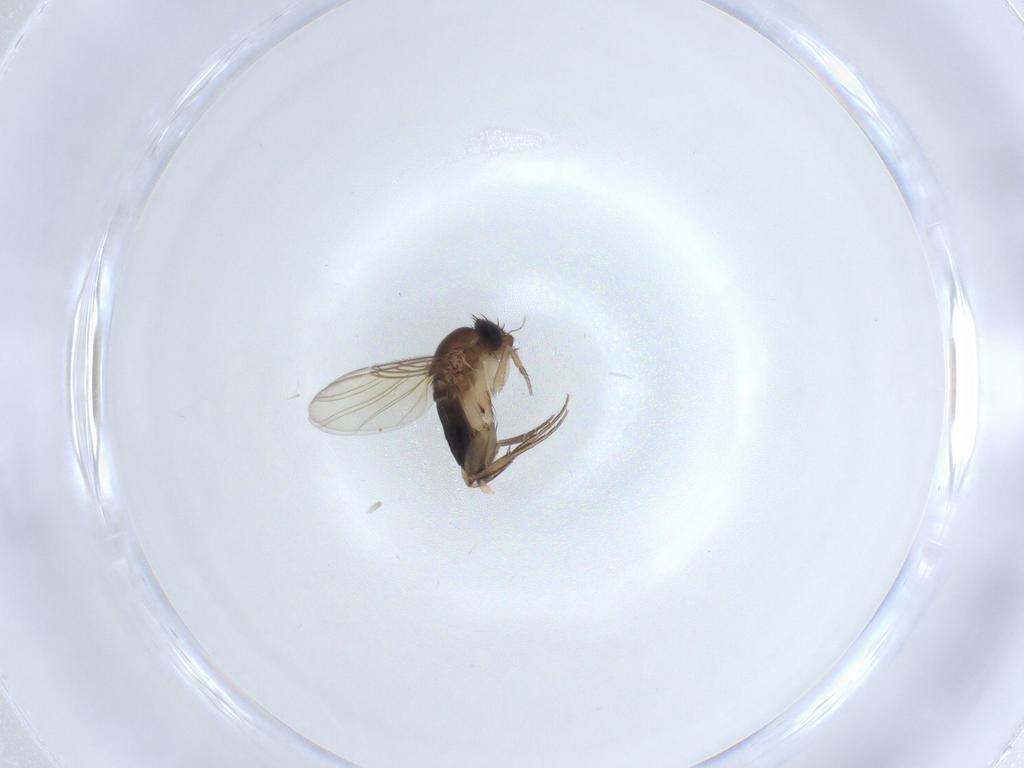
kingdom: Animalia
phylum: Arthropoda
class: Insecta
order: Diptera
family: Phoridae
